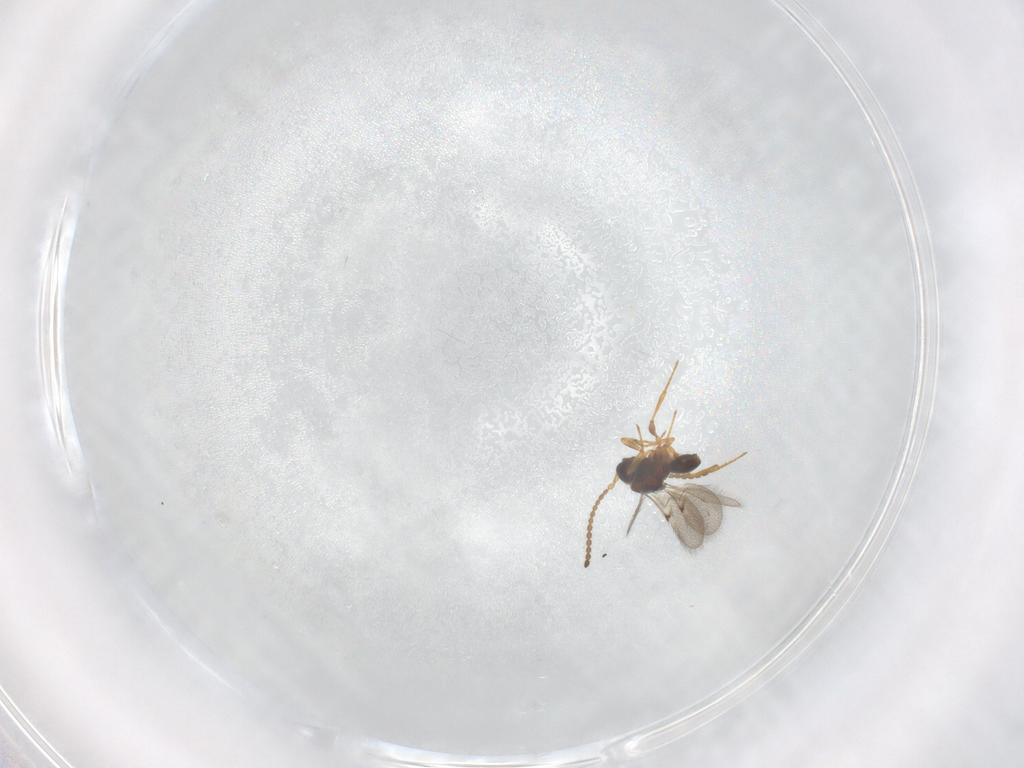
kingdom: Animalia
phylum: Arthropoda
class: Insecta
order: Hymenoptera
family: Diapriidae
